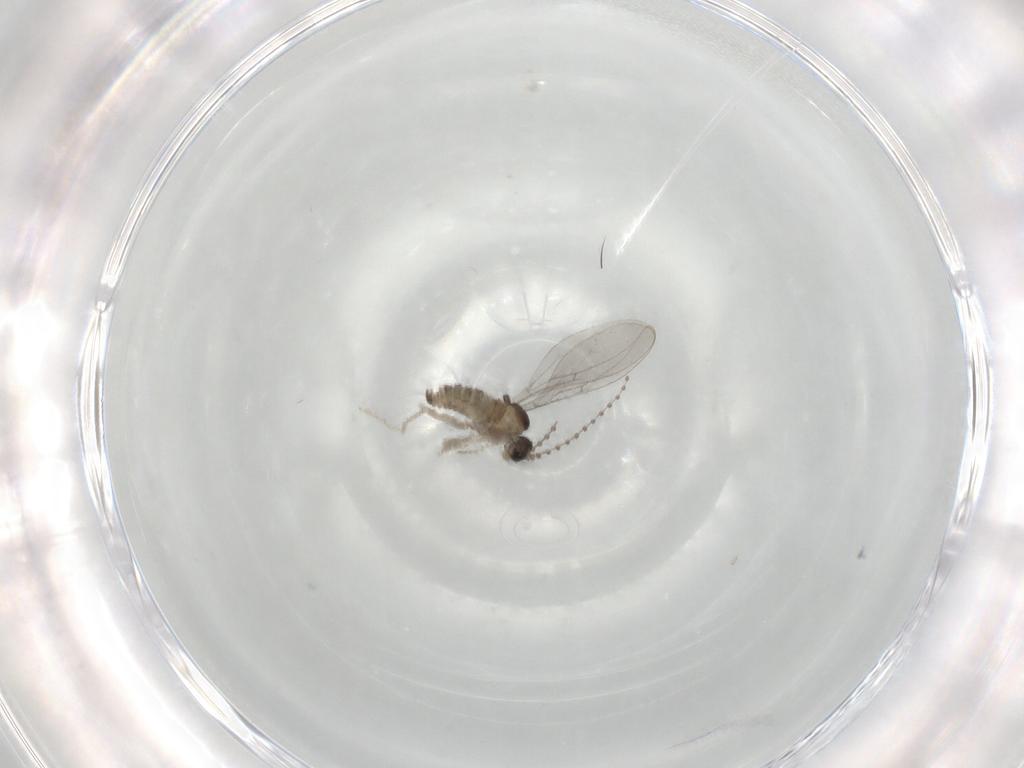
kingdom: Animalia
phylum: Arthropoda
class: Insecta
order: Diptera
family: Cecidomyiidae
